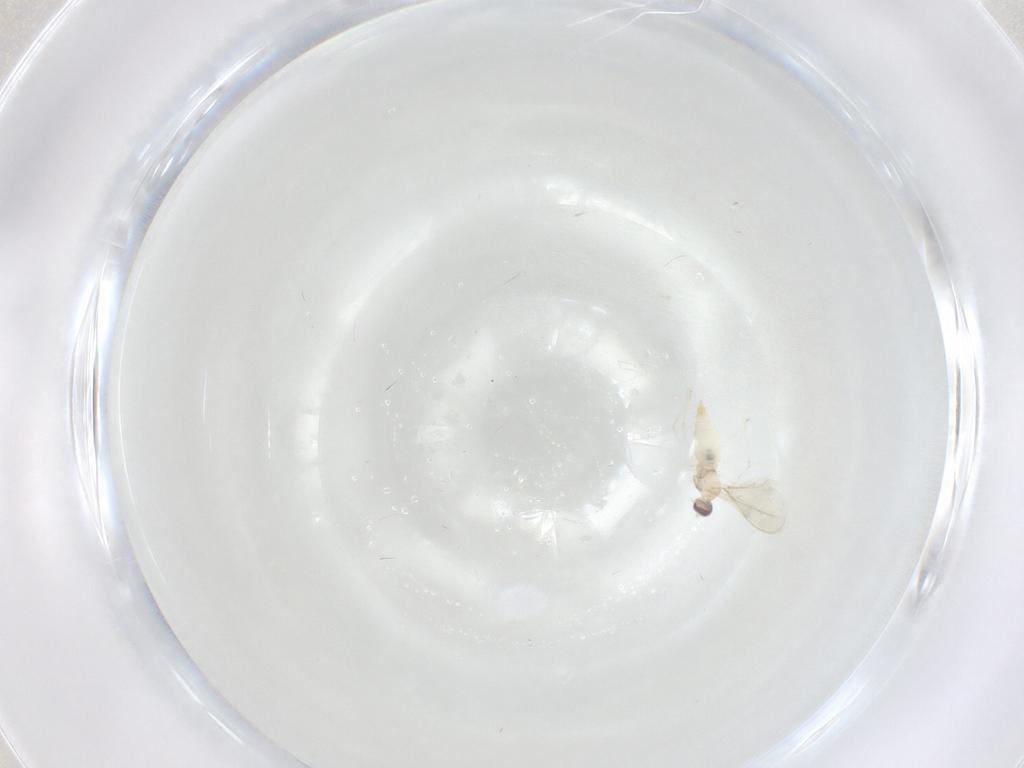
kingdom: Animalia
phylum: Arthropoda
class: Insecta
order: Diptera
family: Cecidomyiidae
